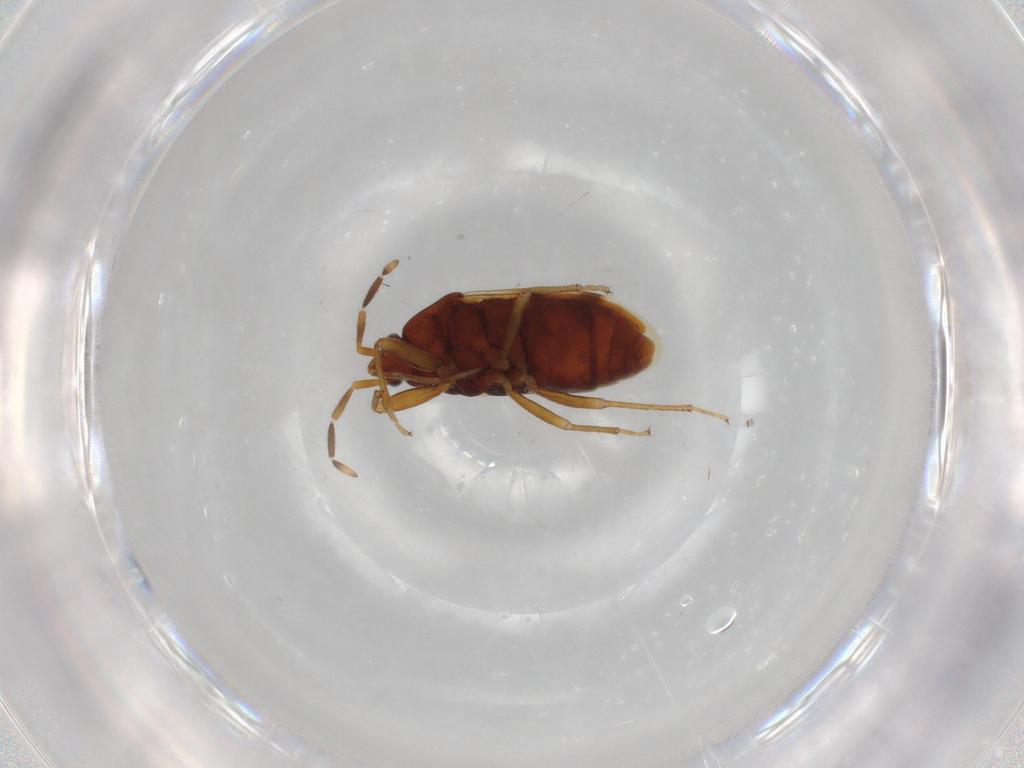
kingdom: Animalia
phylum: Arthropoda
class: Insecta
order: Hemiptera
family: Rhyparochromidae
